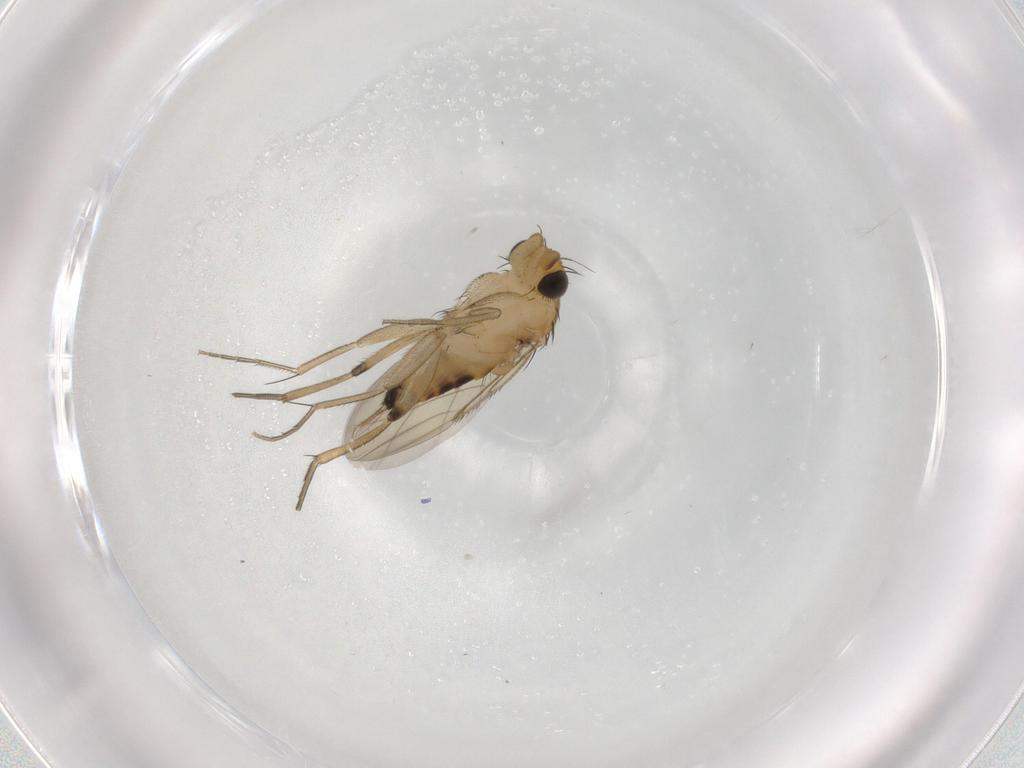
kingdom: Animalia
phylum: Arthropoda
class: Insecta
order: Diptera
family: Phoridae
